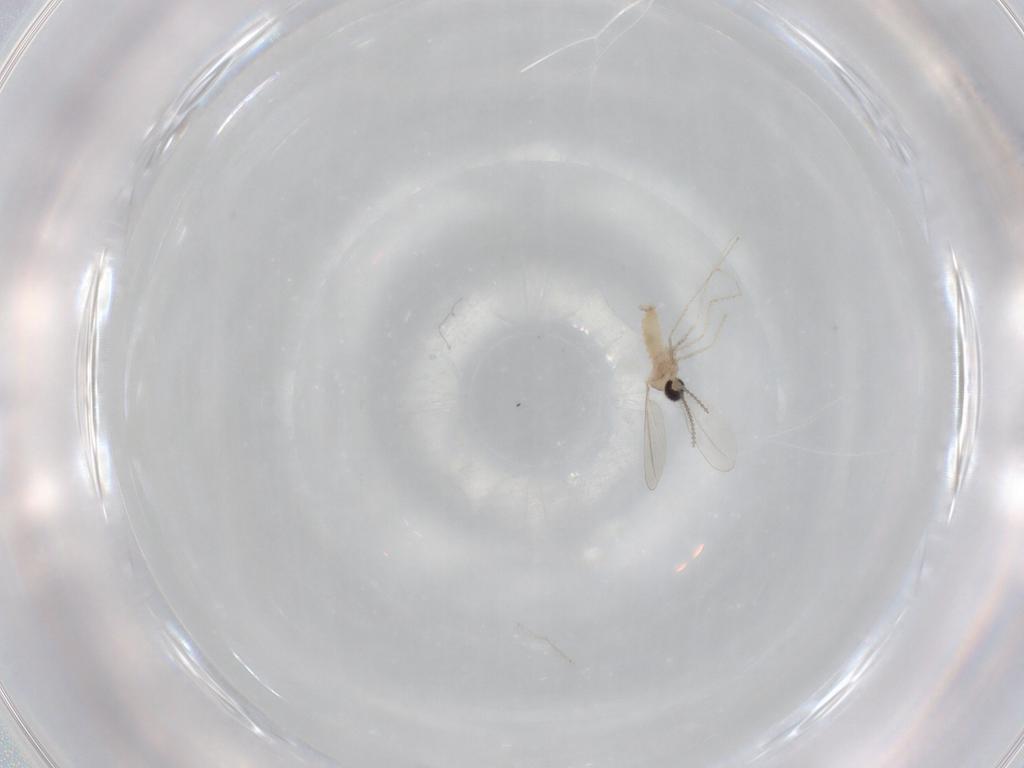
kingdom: Animalia
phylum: Arthropoda
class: Insecta
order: Diptera
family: Cecidomyiidae
